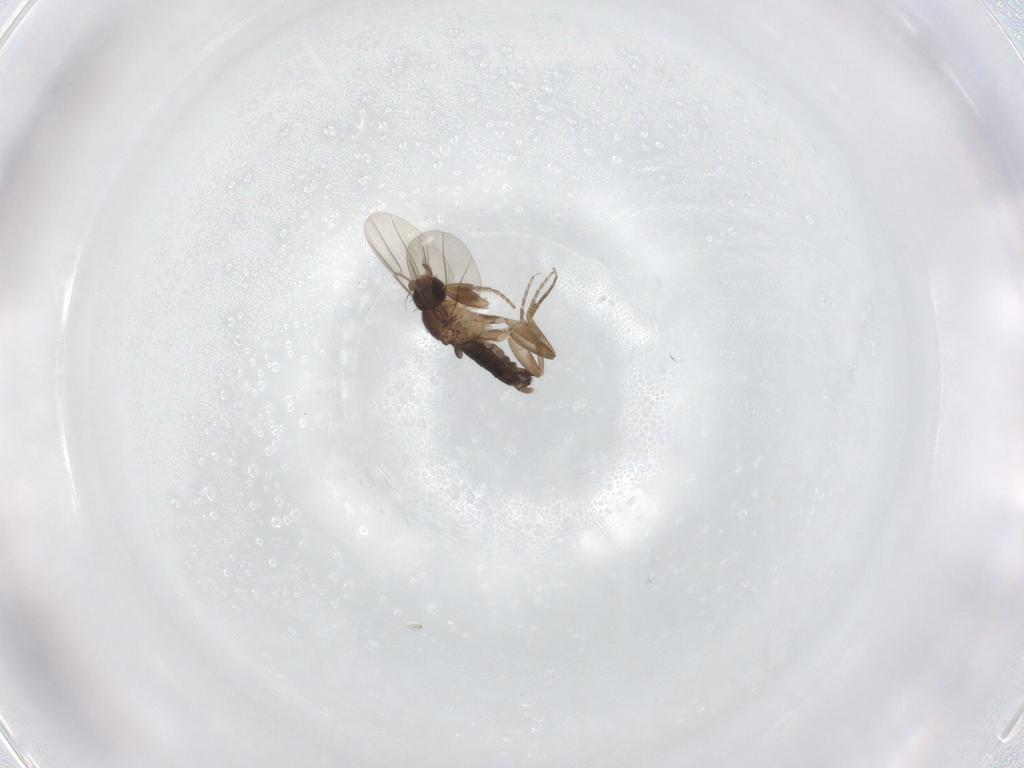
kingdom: Animalia
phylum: Arthropoda
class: Insecta
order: Diptera
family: Phoridae
